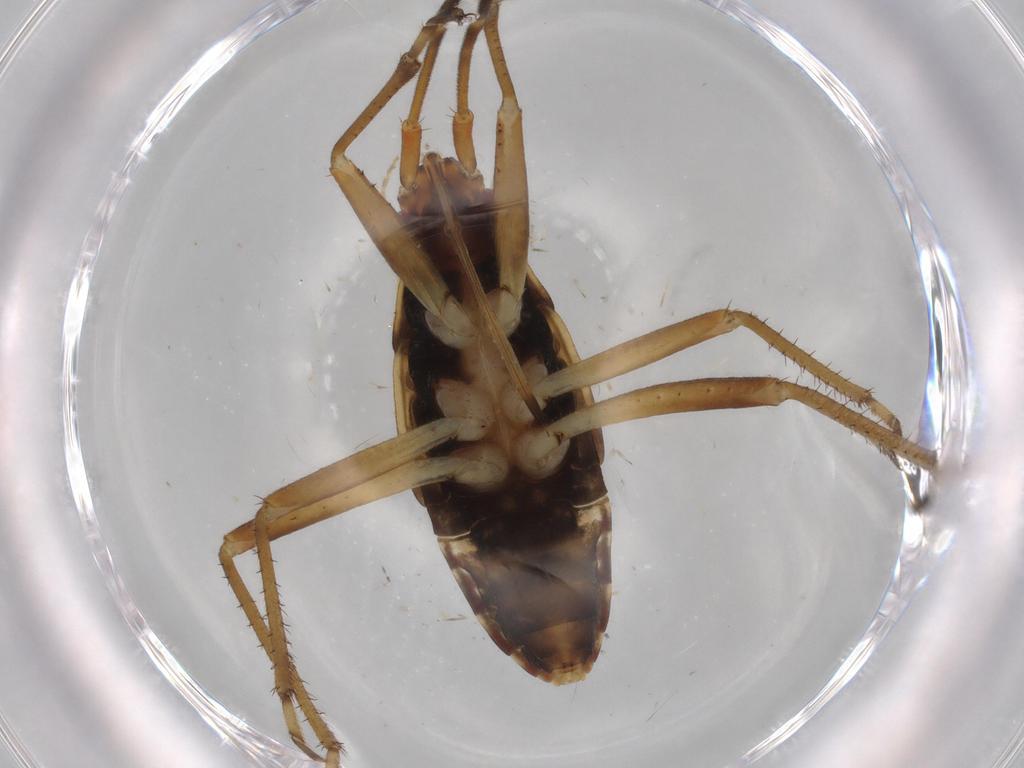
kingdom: Animalia
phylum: Arthropoda
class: Insecta
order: Hemiptera
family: Rhyparochromidae
